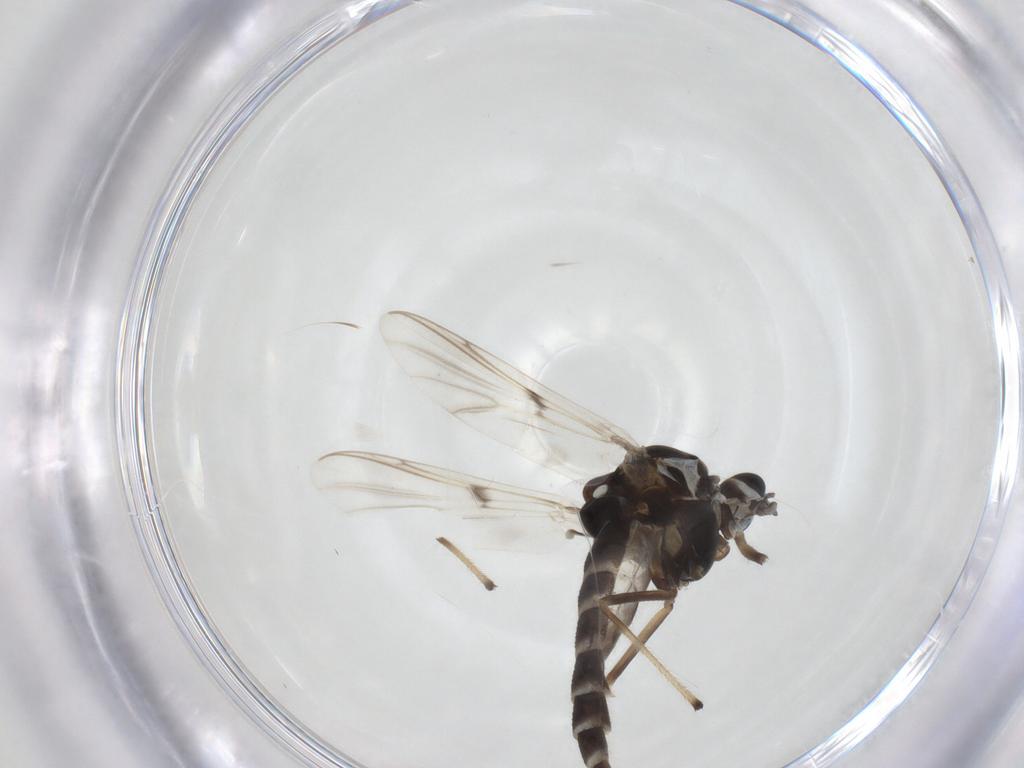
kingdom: Animalia
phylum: Arthropoda
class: Insecta
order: Diptera
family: Chironomidae
